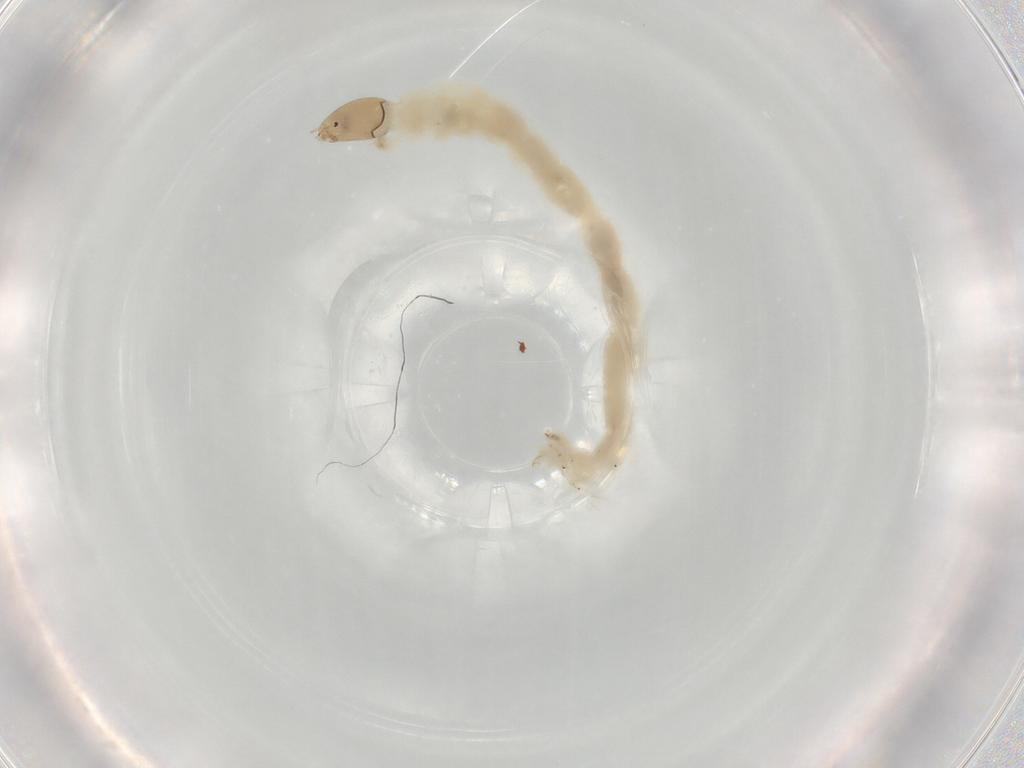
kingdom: Animalia
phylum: Arthropoda
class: Insecta
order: Diptera
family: Chironomidae
